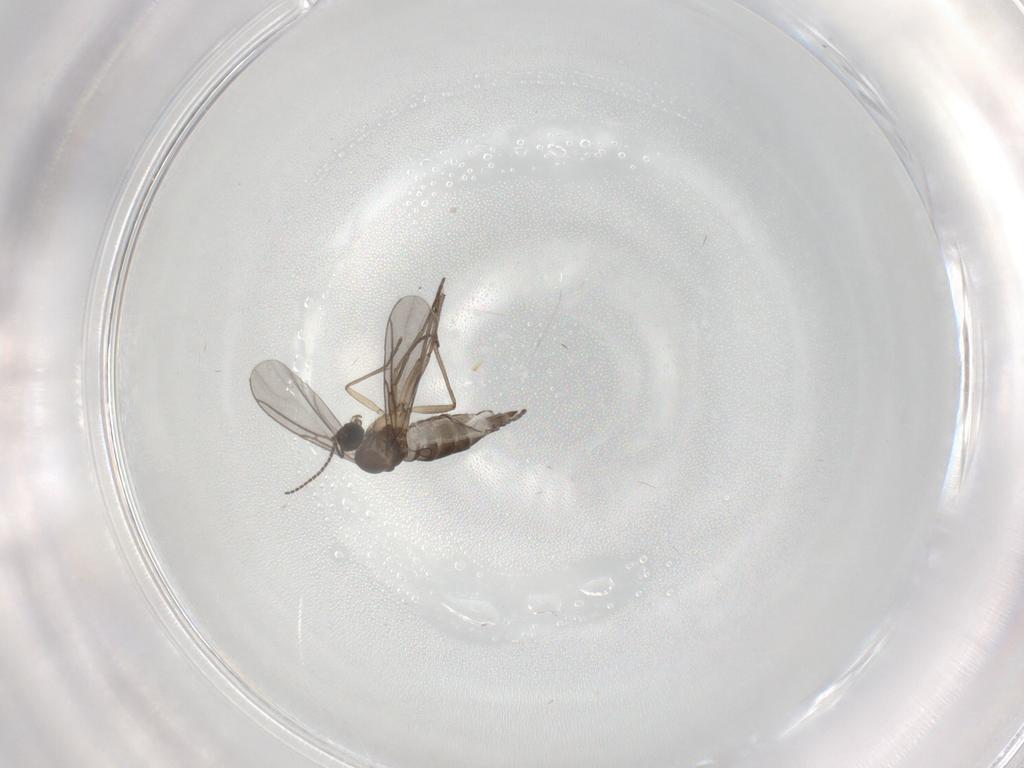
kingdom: Animalia
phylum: Arthropoda
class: Insecta
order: Diptera
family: Sciaridae
